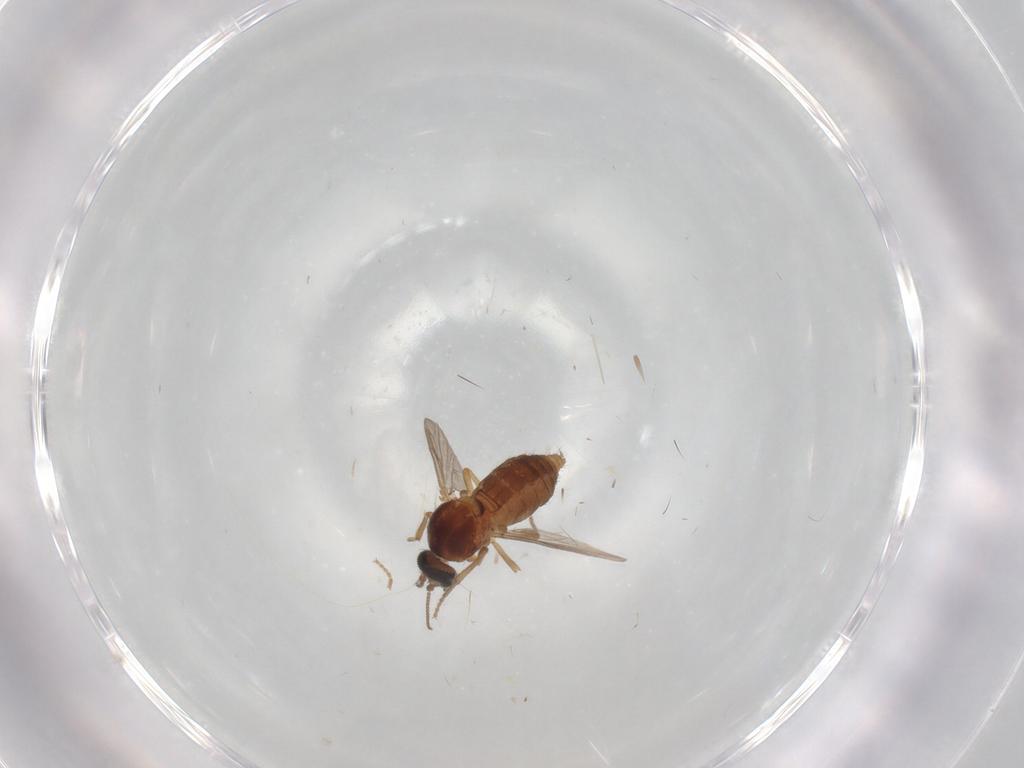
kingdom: Animalia
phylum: Arthropoda
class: Insecta
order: Diptera
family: Ceratopogonidae
